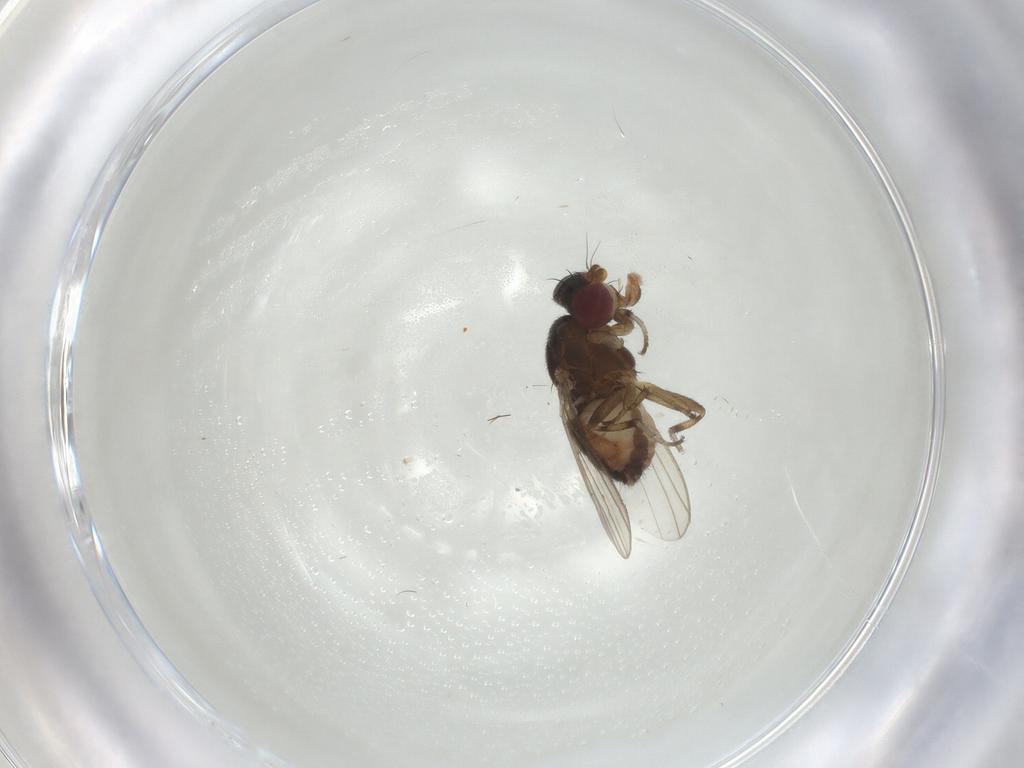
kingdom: Animalia
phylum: Arthropoda
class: Insecta
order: Diptera
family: Heleomyzidae
